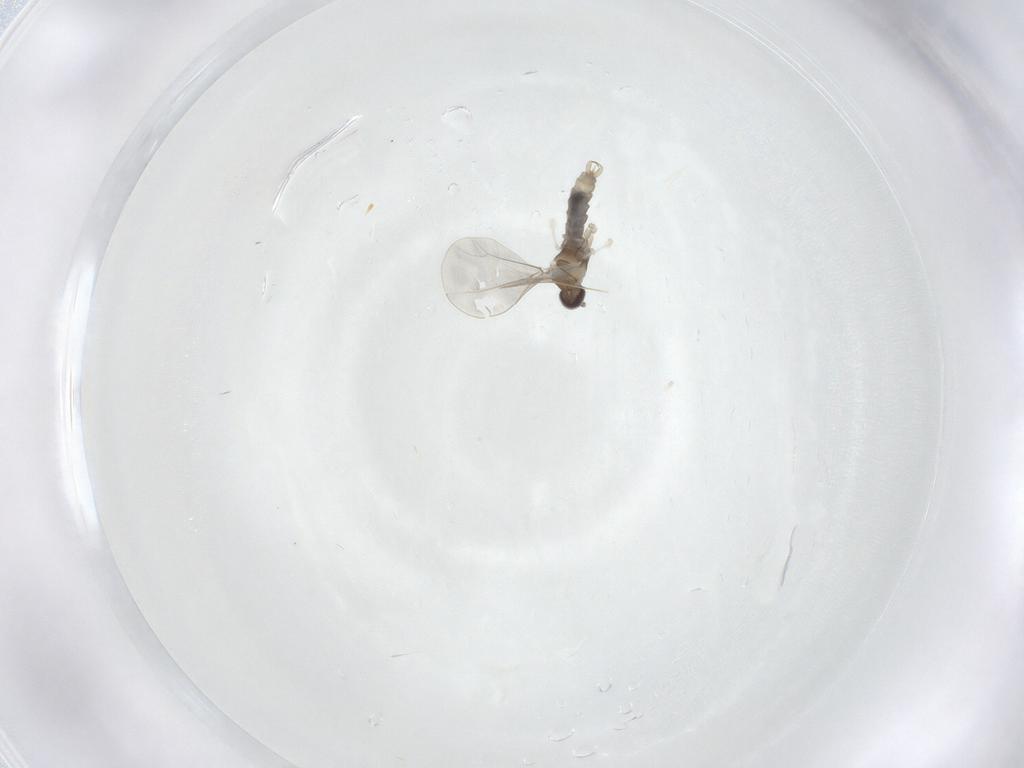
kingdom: Animalia
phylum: Arthropoda
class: Insecta
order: Diptera
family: Cecidomyiidae
